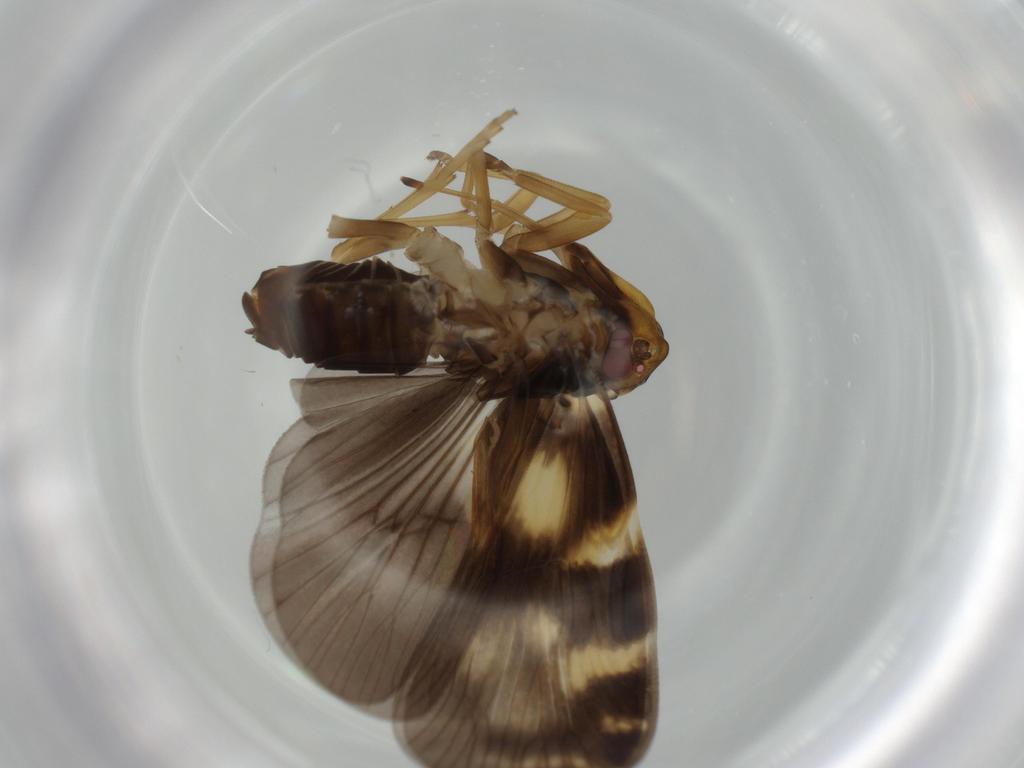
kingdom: Animalia
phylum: Arthropoda
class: Insecta
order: Hemiptera
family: Cixiidae
